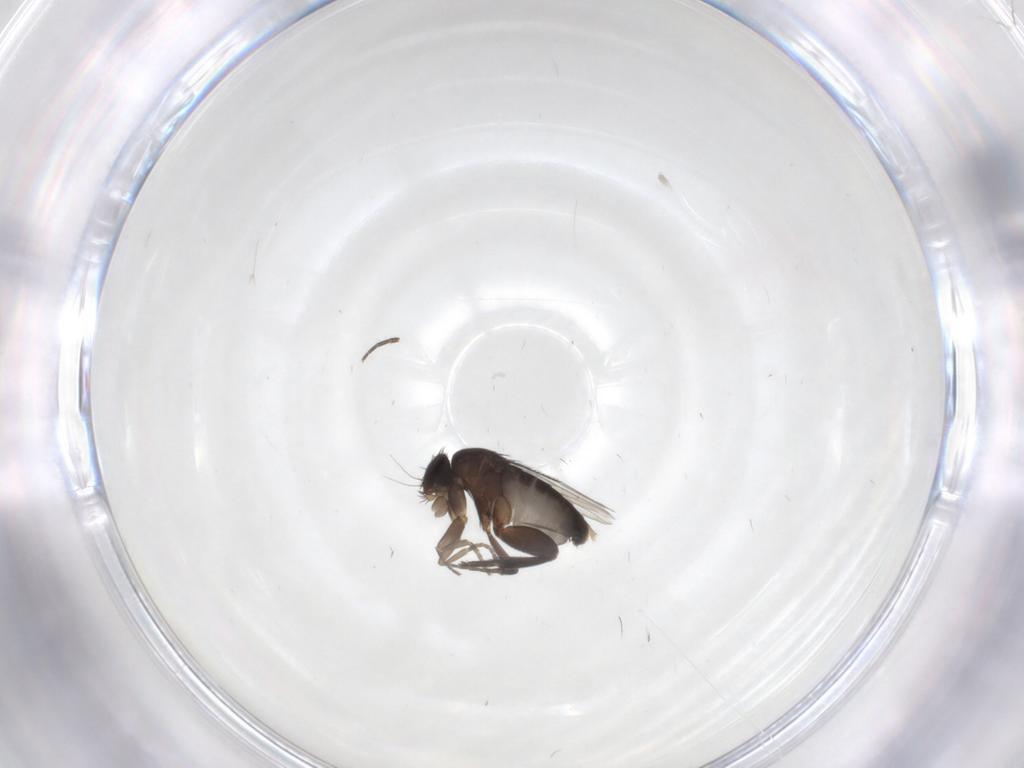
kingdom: Animalia
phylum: Arthropoda
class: Insecta
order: Diptera
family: Phoridae
